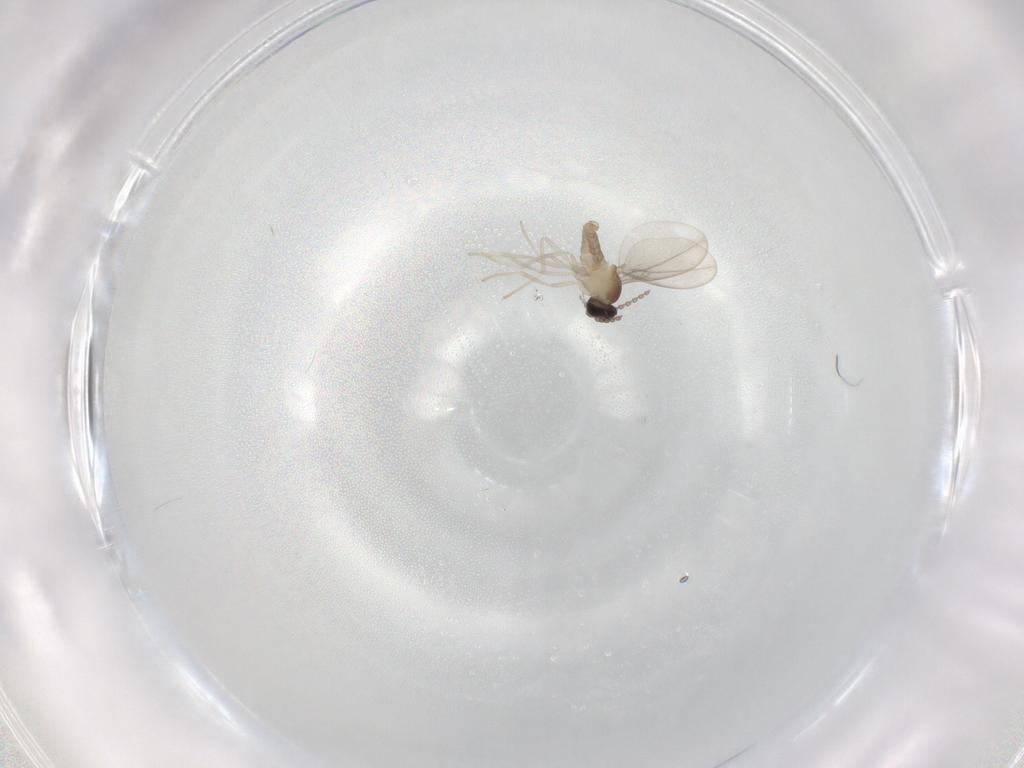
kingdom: Animalia
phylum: Arthropoda
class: Insecta
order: Diptera
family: Cecidomyiidae
